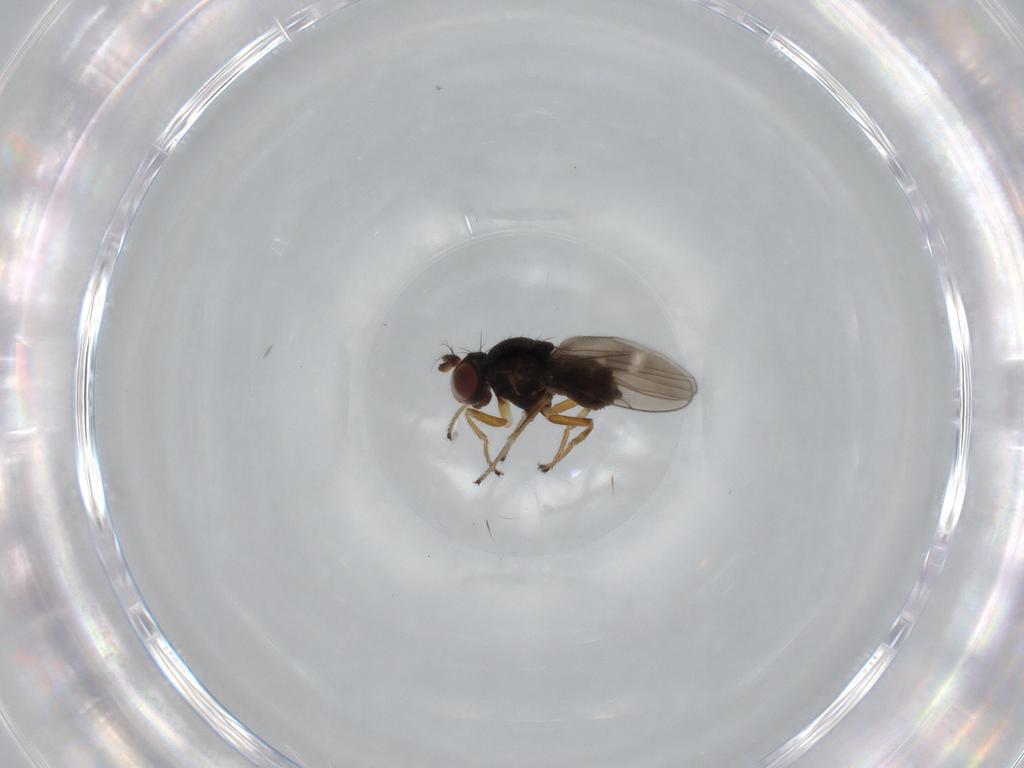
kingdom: Animalia
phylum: Arthropoda
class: Insecta
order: Diptera
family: Ephydridae
